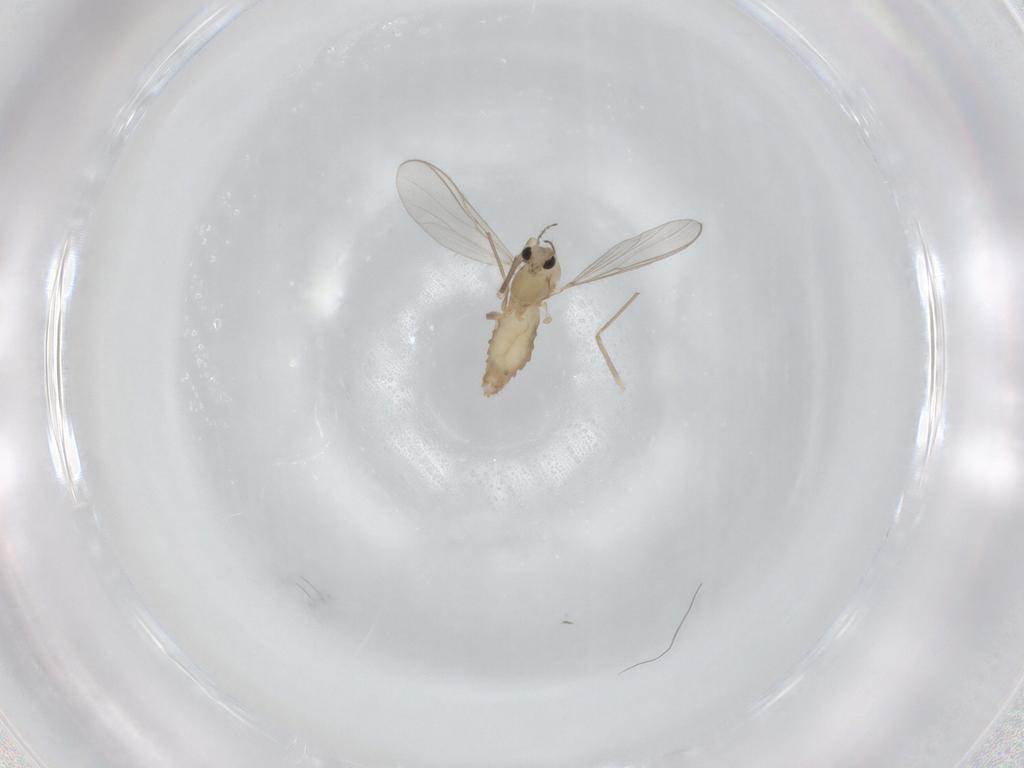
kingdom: Animalia
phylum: Arthropoda
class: Insecta
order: Diptera
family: Chironomidae
